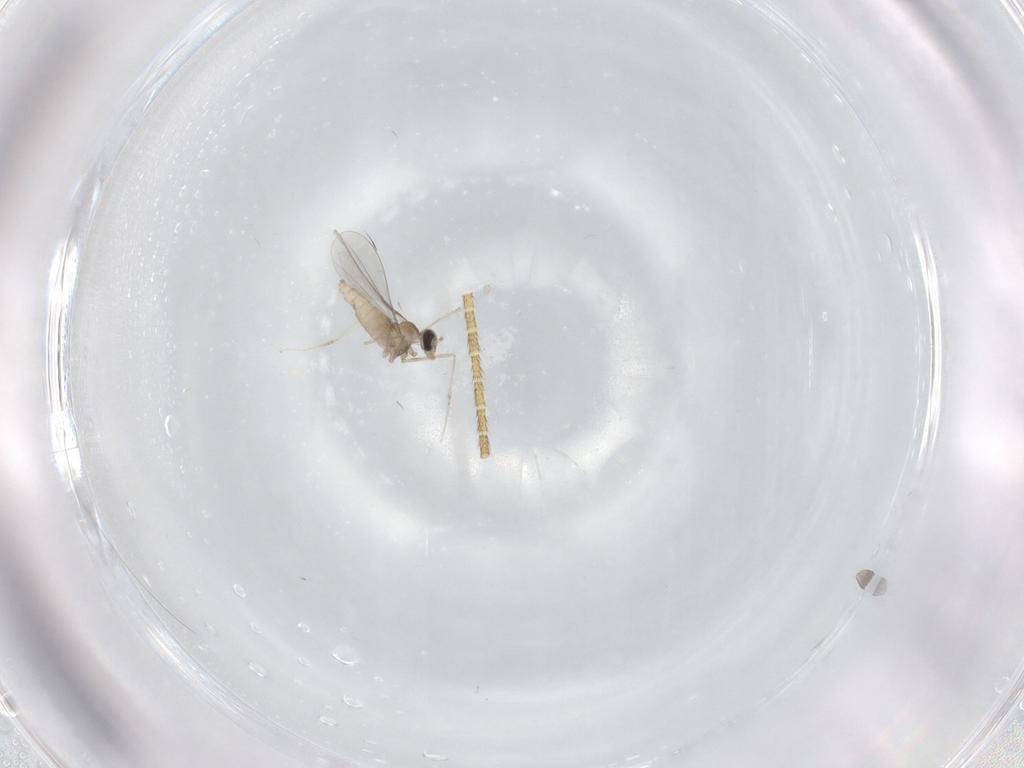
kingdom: Animalia
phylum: Arthropoda
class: Insecta
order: Diptera
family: Cecidomyiidae
